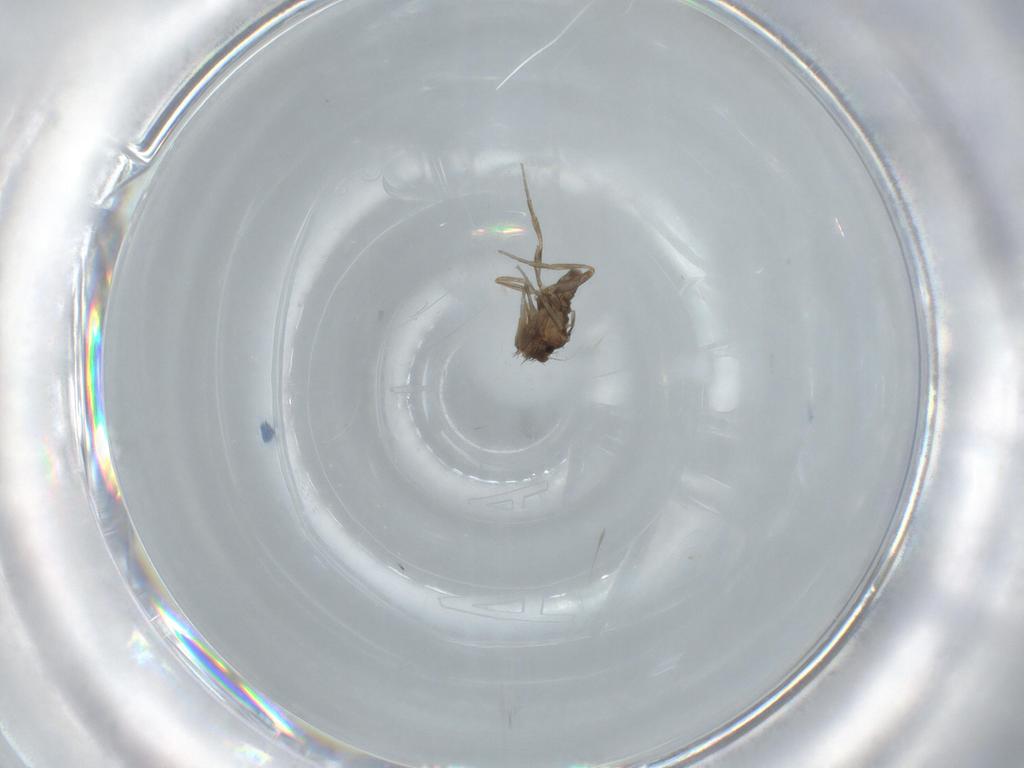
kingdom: Animalia
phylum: Arthropoda
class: Insecta
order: Diptera
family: Phoridae
